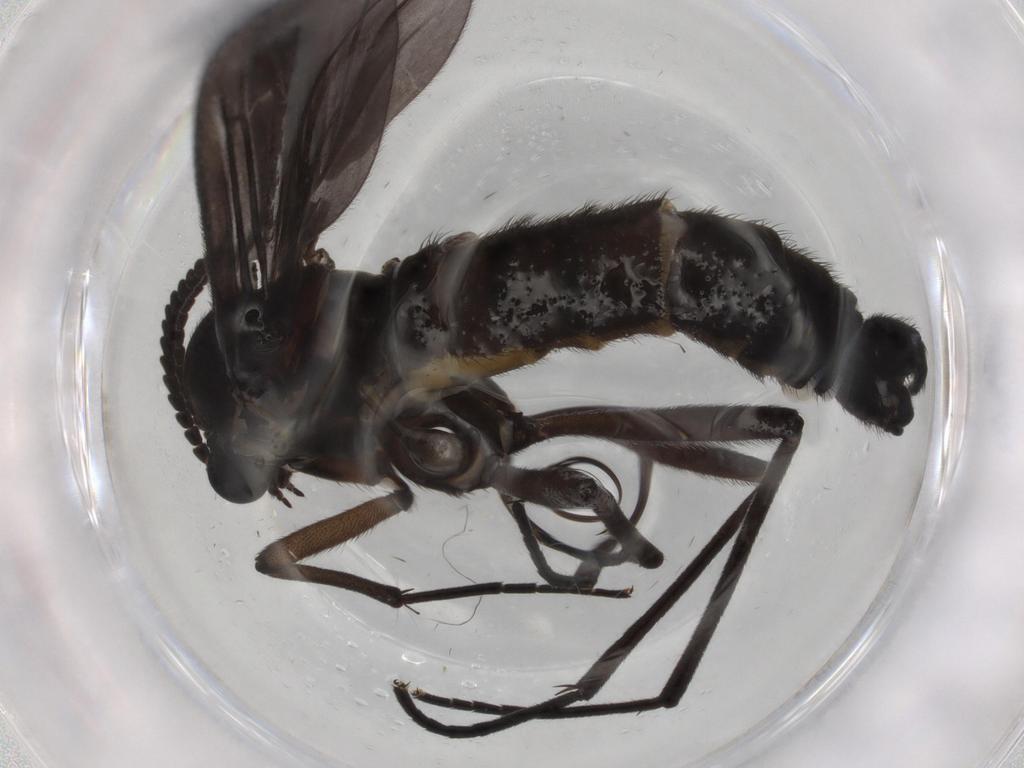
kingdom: Animalia
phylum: Arthropoda
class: Insecta
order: Diptera
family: Sciaridae
